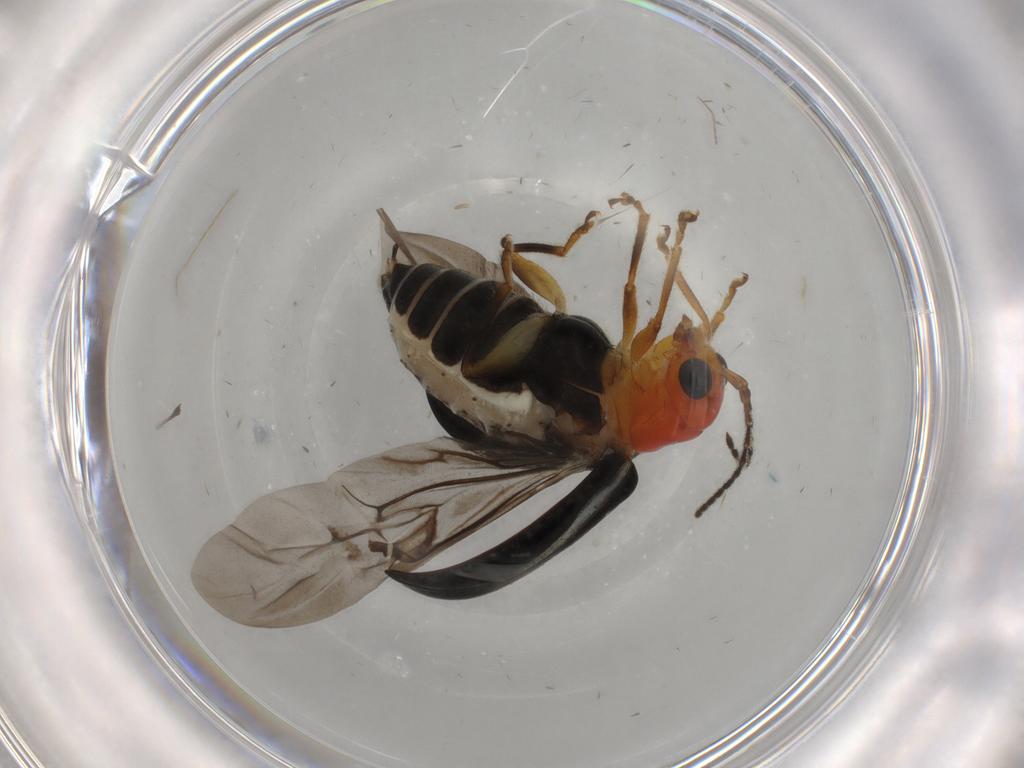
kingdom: Animalia
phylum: Arthropoda
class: Insecta
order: Coleoptera
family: Chrysomelidae
